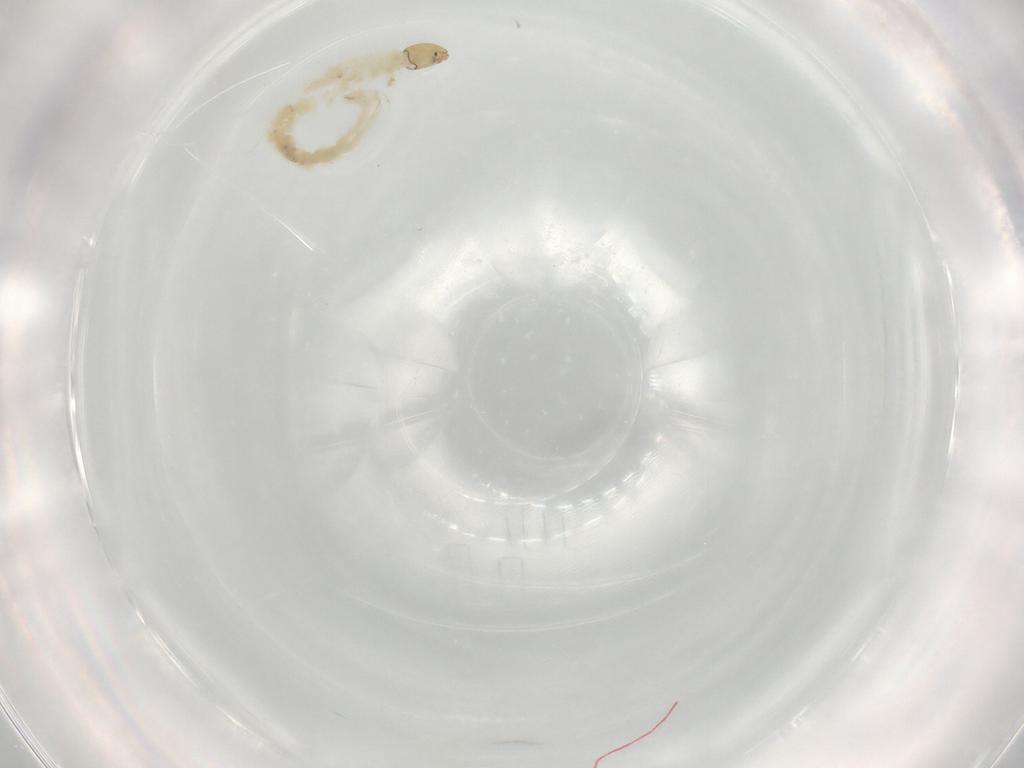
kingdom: Animalia
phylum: Arthropoda
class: Insecta
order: Diptera
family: Chironomidae
